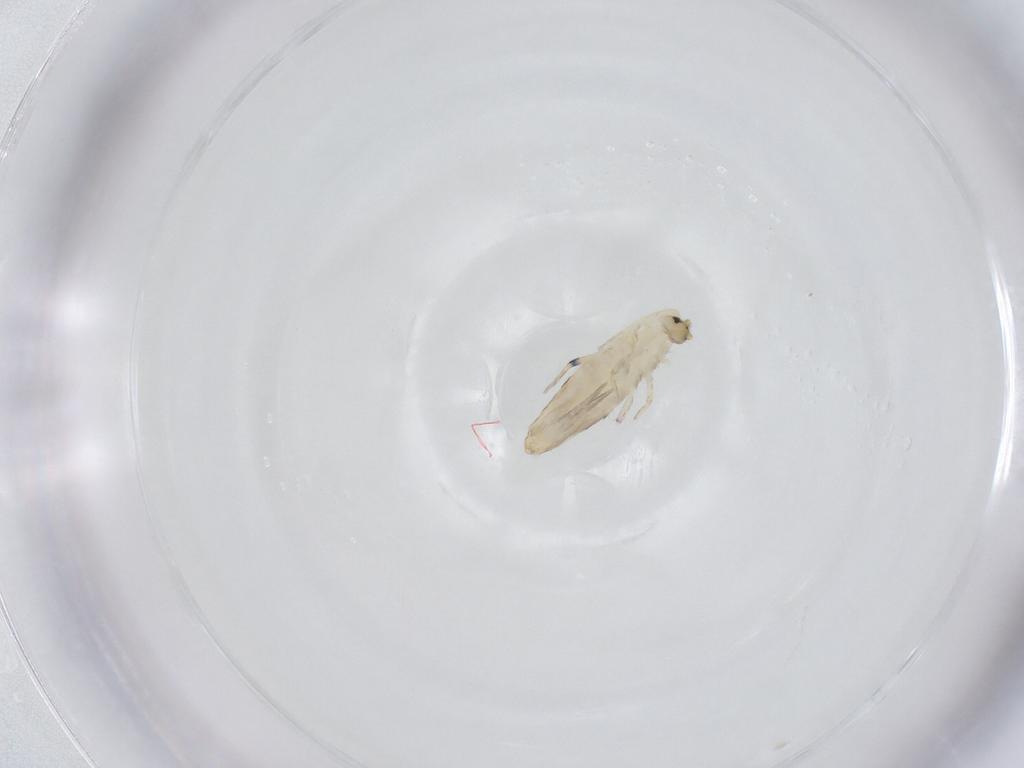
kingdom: Animalia
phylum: Arthropoda
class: Collembola
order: Entomobryomorpha
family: Entomobryidae
